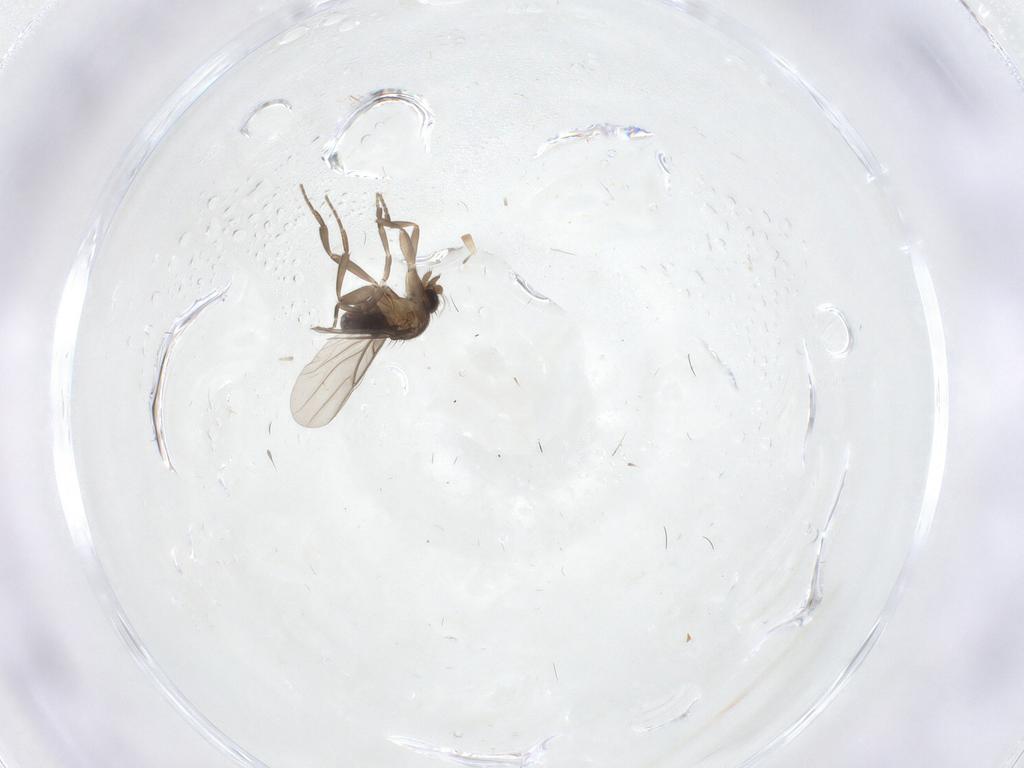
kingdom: Animalia
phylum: Arthropoda
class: Insecta
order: Diptera
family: Phoridae
